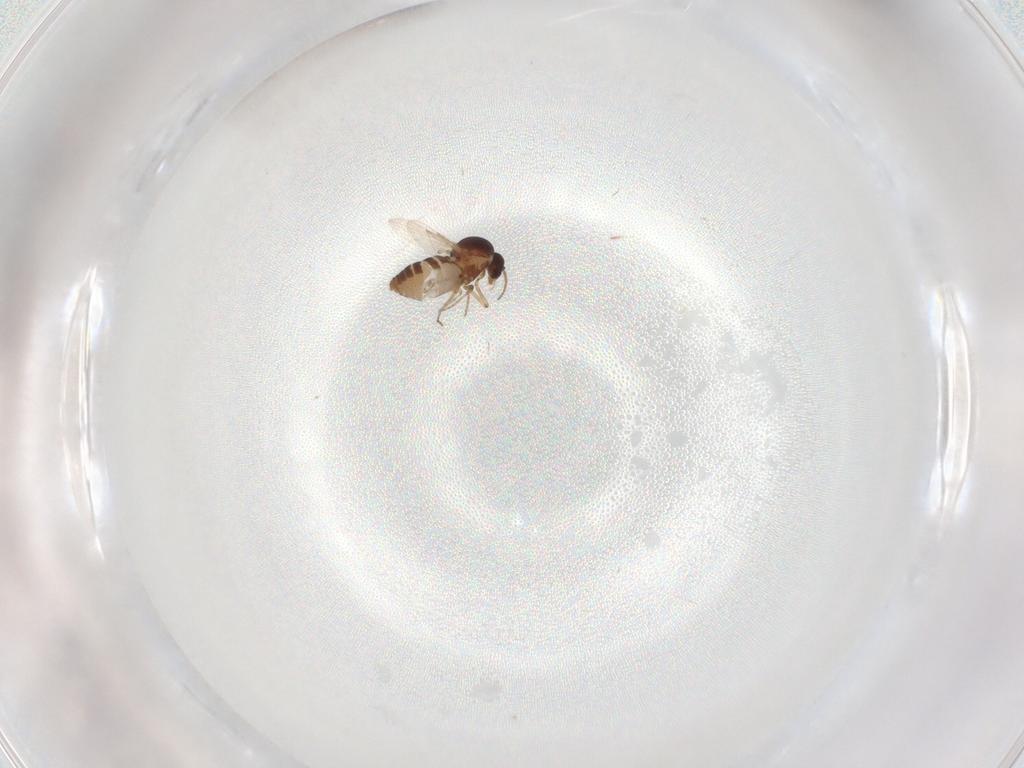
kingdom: Animalia
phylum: Arthropoda
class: Insecta
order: Diptera
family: Ceratopogonidae
